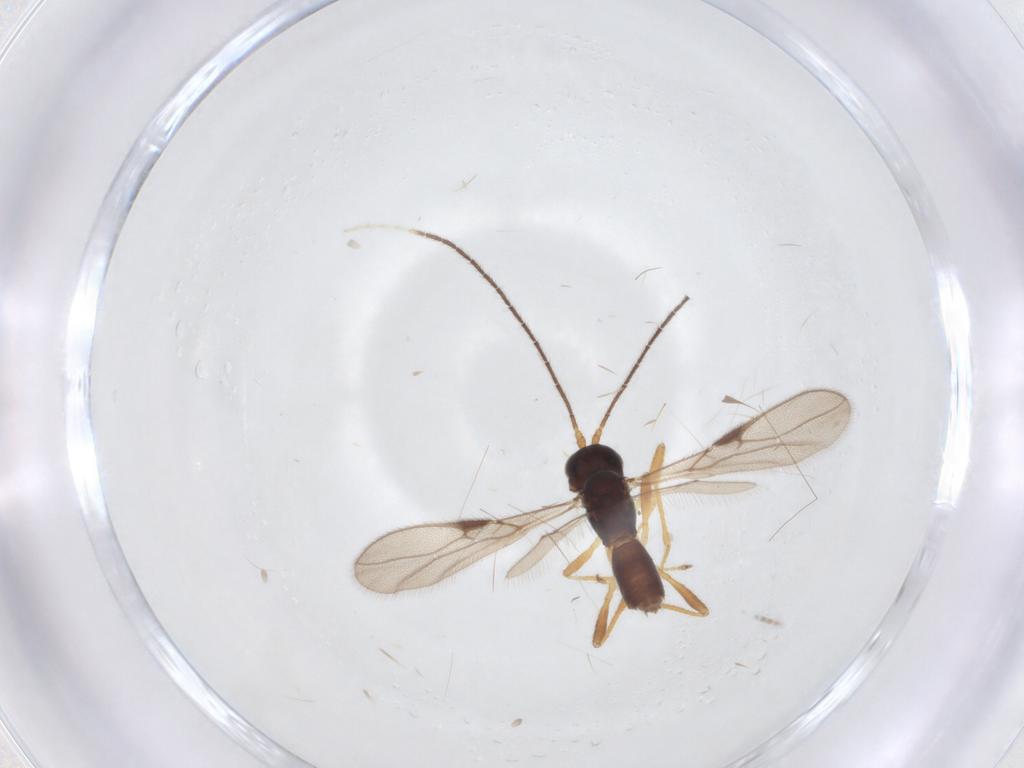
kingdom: Animalia
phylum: Arthropoda
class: Insecta
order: Hymenoptera
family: Braconidae
